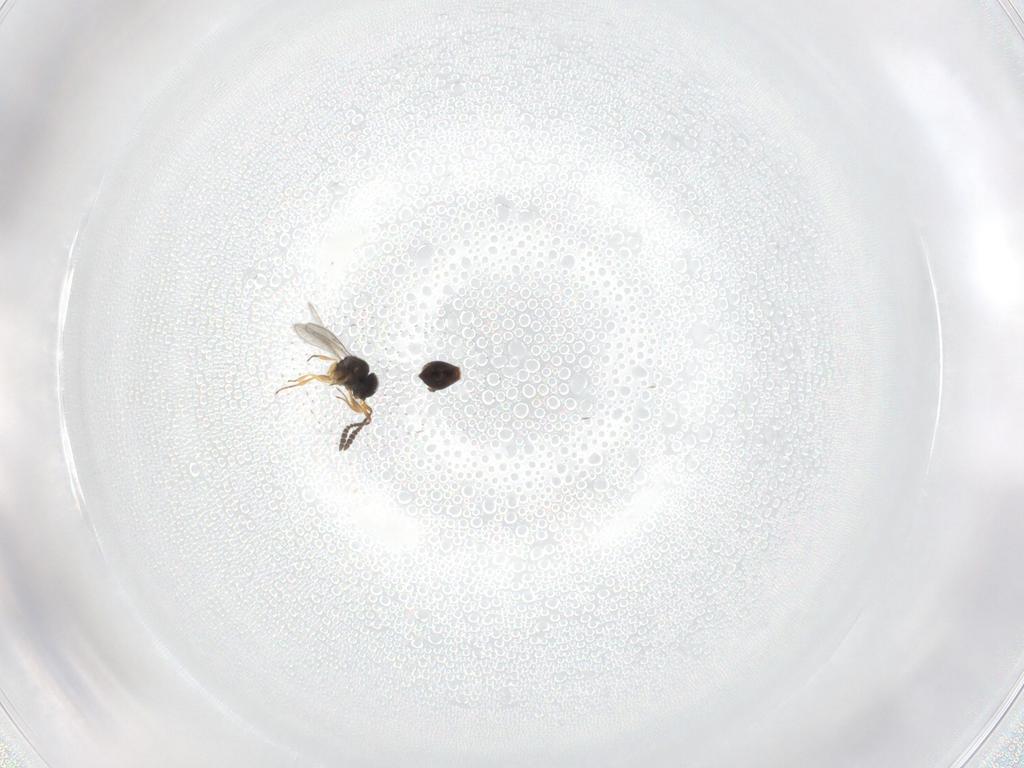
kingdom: Animalia
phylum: Arthropoda
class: Insecta
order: Hymenoptera
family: Scelionidae
